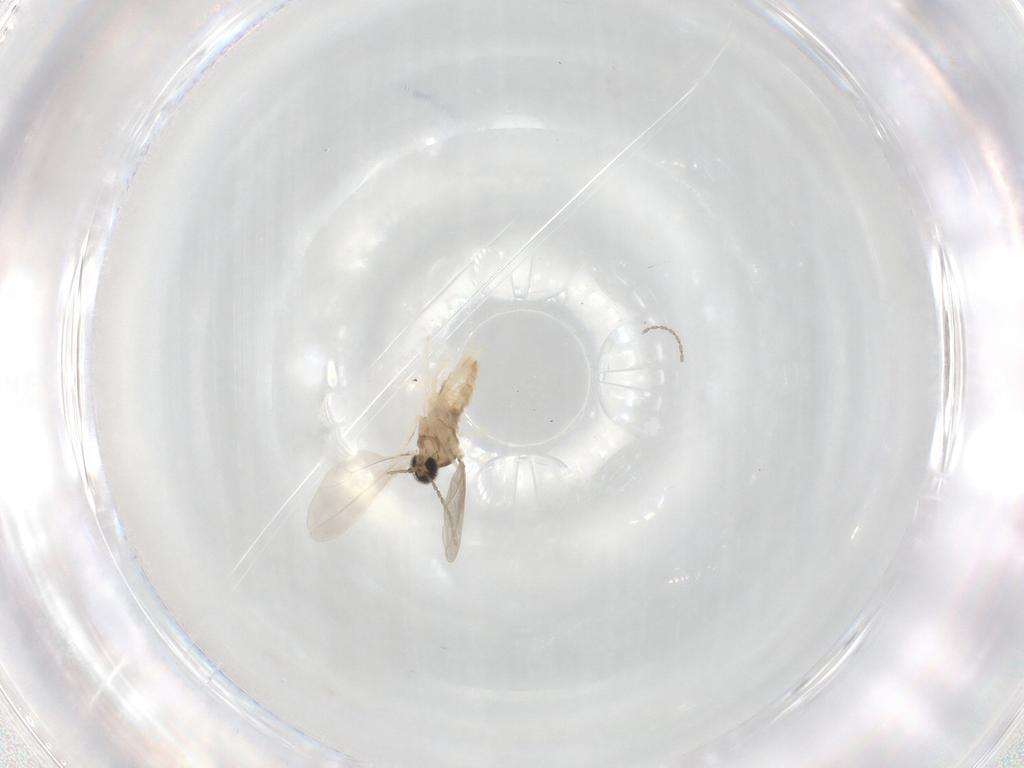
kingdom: Animalia
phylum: Arthropoda
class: Insecta
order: Diptera
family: Cecidomyiidae
